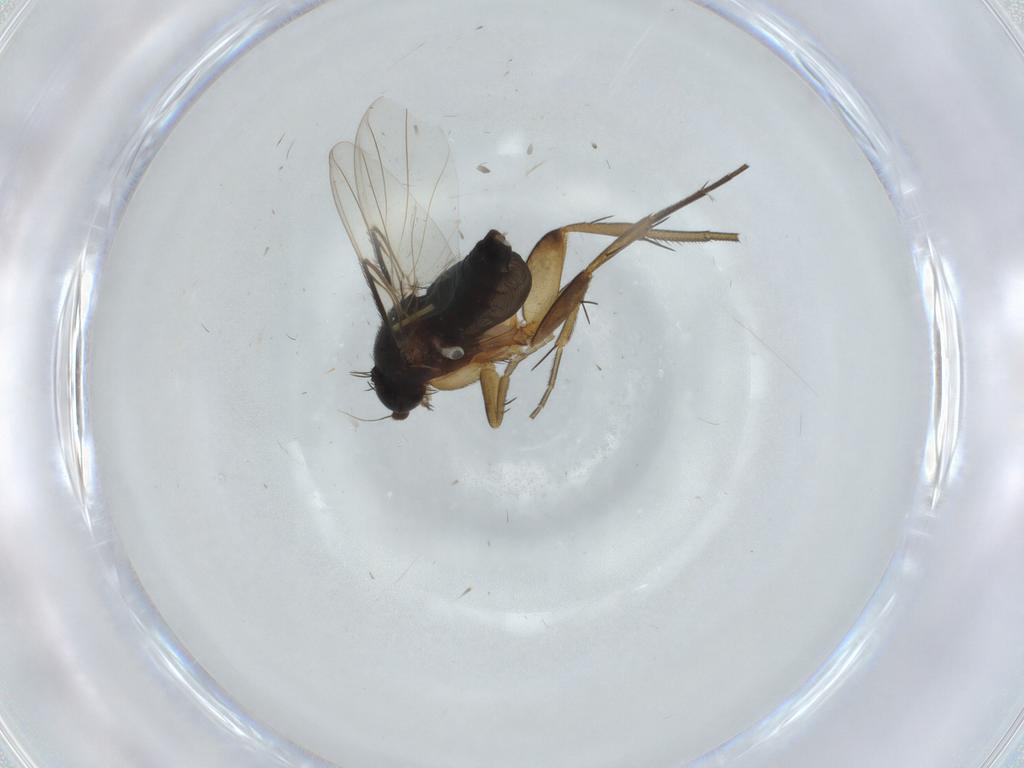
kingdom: Animalia
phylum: Arthropoda
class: Insecta
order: Diptera
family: Phoridae
